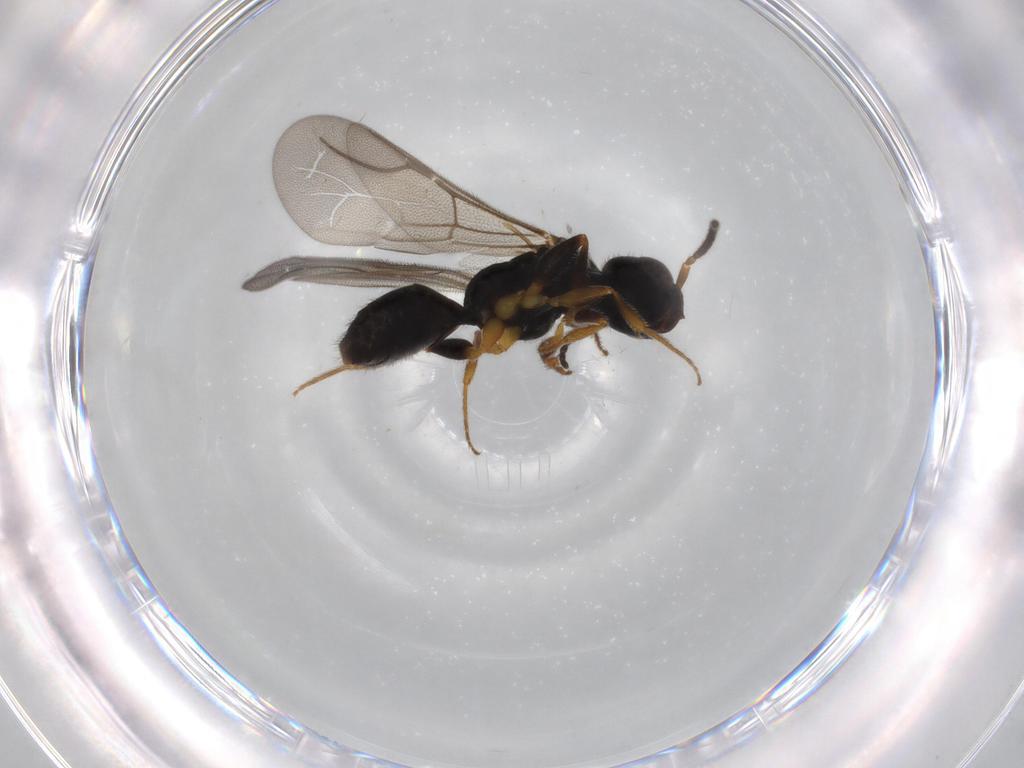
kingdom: Animalia
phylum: Arthropoda
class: Insecta
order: Hymenoptera
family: Bethylidae
